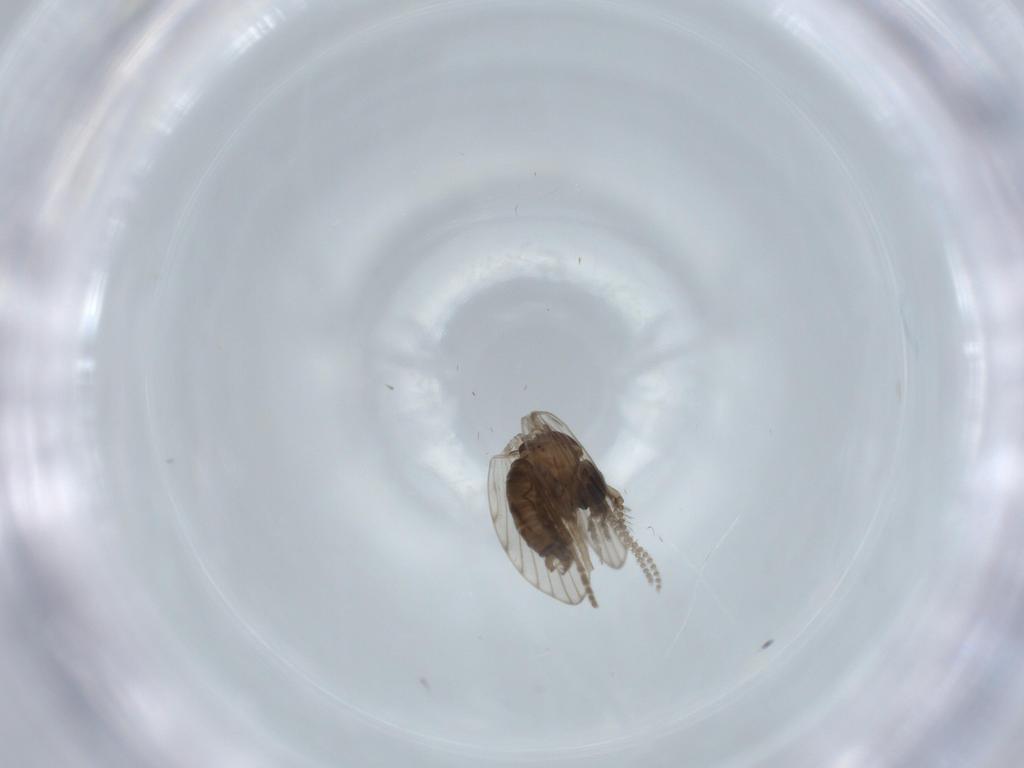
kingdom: Animalia
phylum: Arthropoda
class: Insecta
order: Diptera
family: Psychodidae
